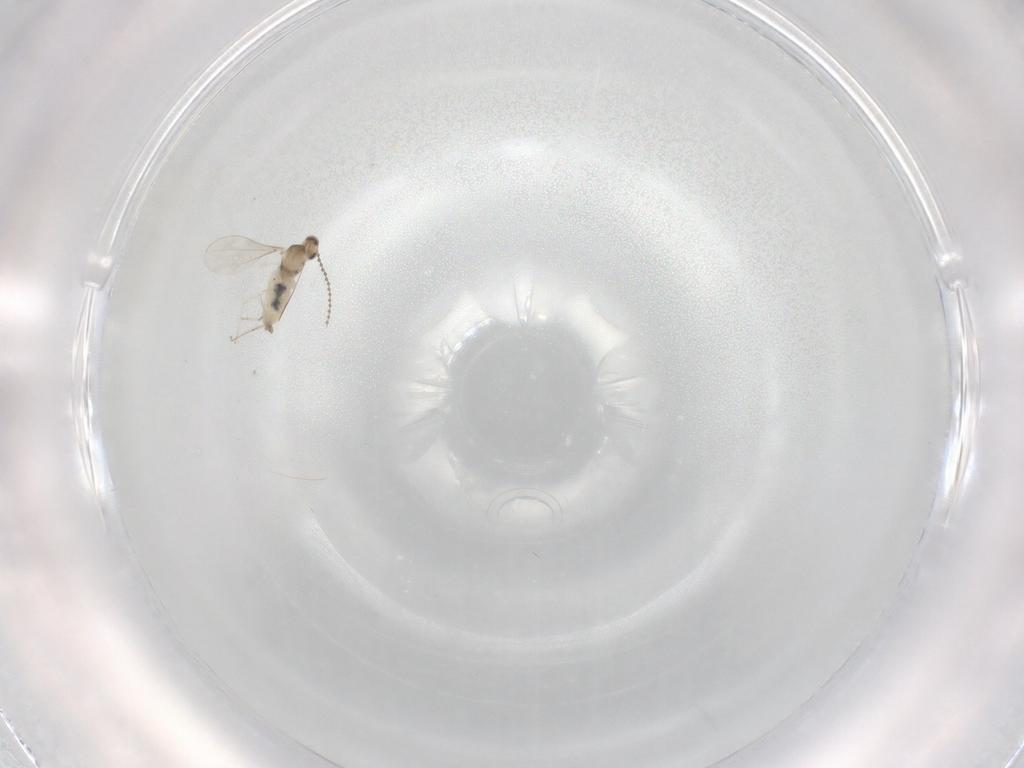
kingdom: Animalia
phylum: Arthropoda
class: Insecta
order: Diptera
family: Cecidomyiidae
